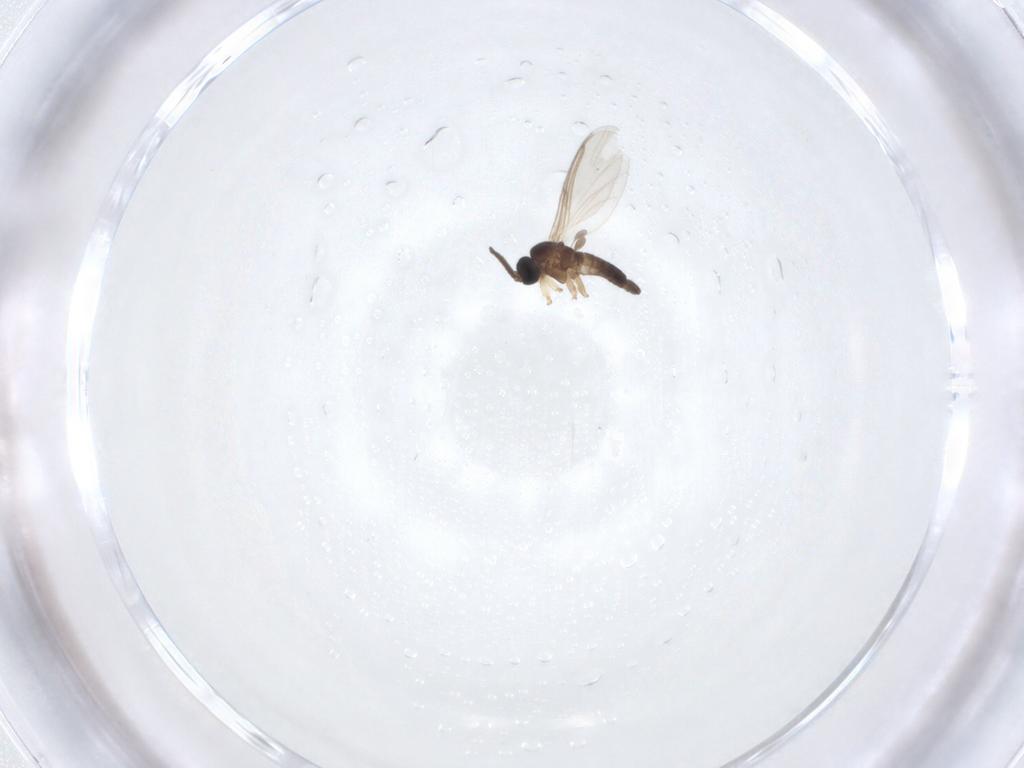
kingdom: Animalia
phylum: Arthropoda
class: Insecta
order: Diptera
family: Sciaridae
